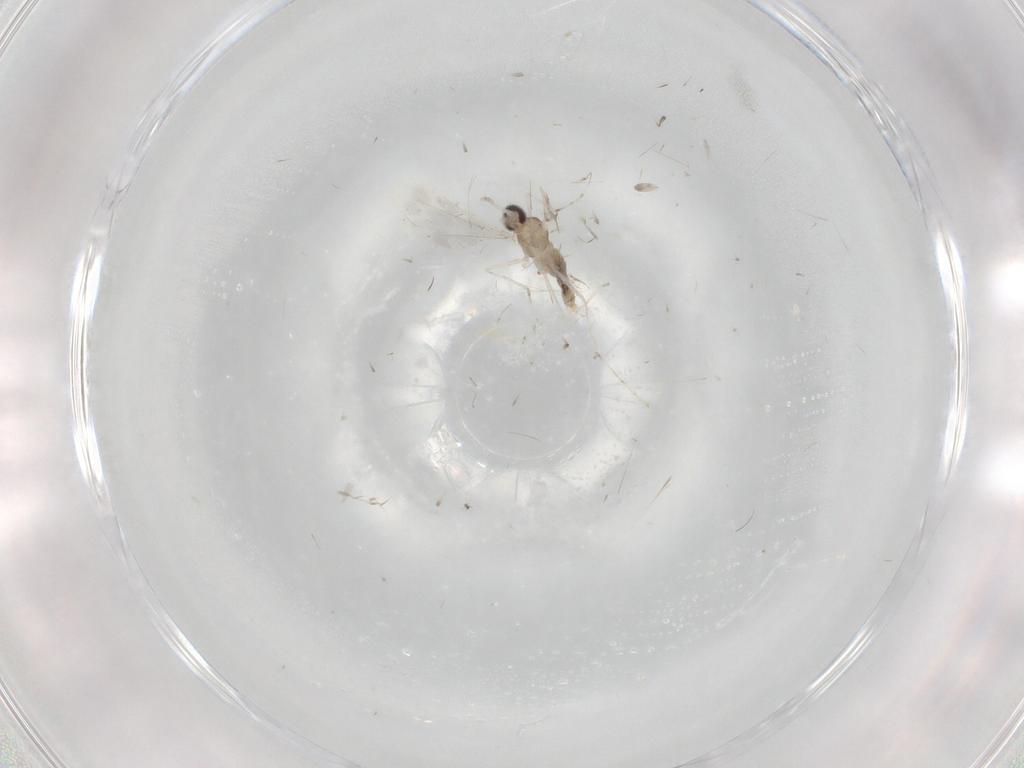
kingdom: Animalia
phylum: Arthropoda
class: Insecta
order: Diptera
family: Cecidomyiidae
